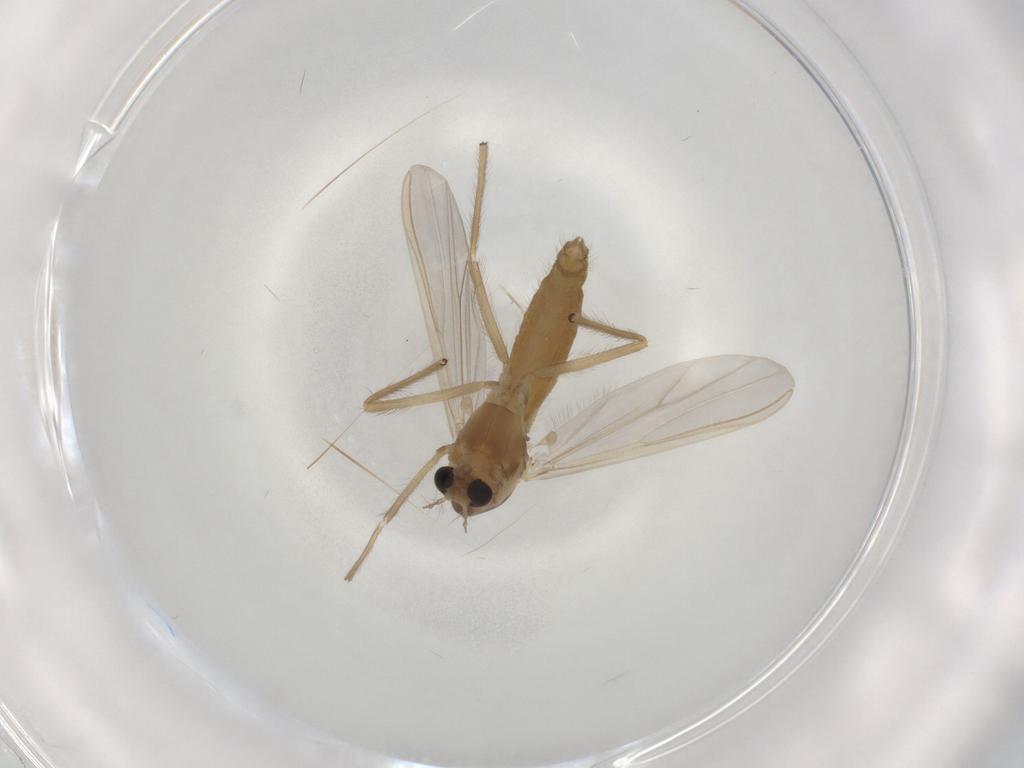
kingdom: Animalia
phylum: Arthropoda
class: Insecta
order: Diptera
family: Chironomidae
